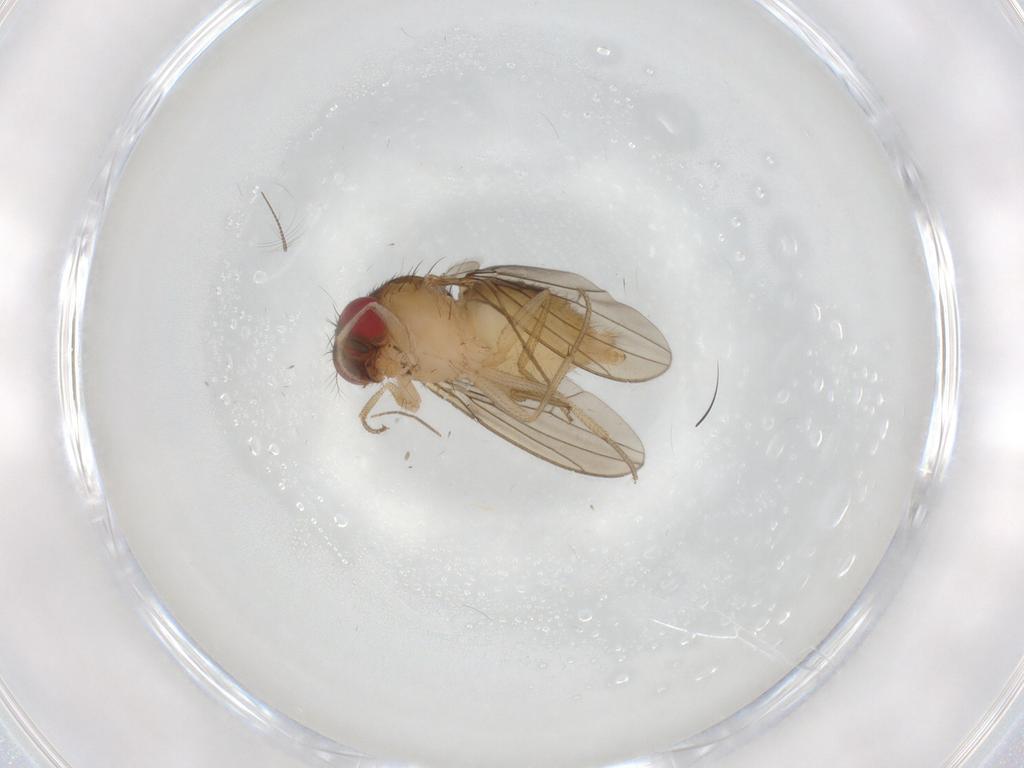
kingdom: Animalia
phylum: Arthropoda
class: Insecta
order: Diptera
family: Drosophilidae
